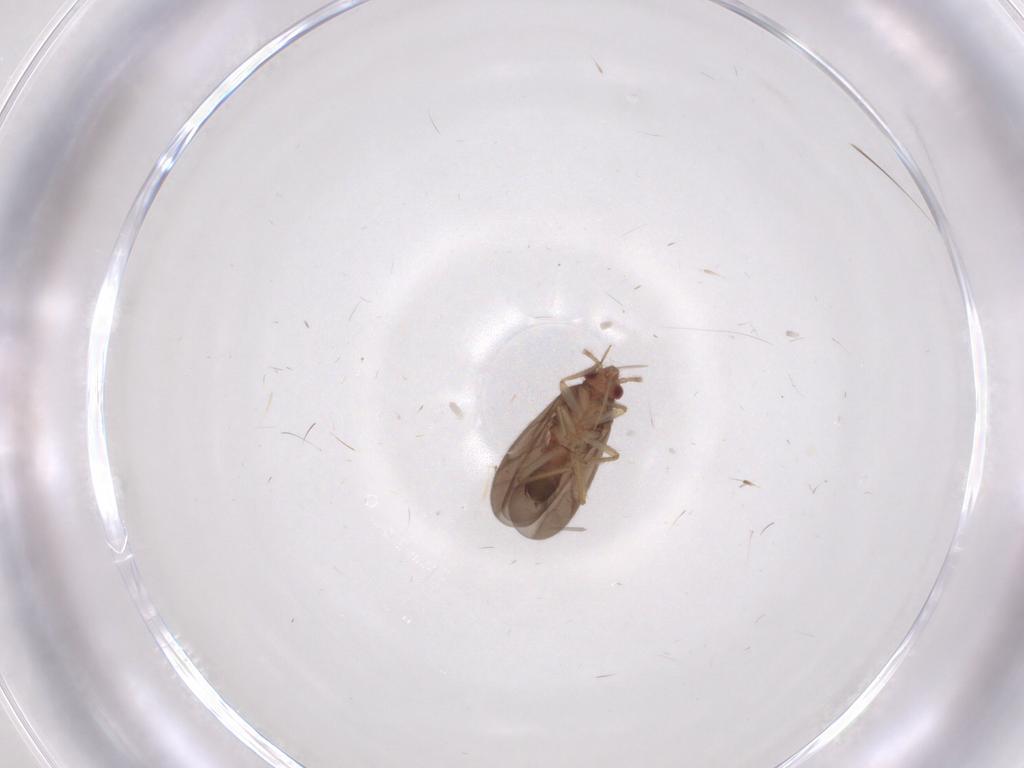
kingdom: Animalia
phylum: Arthropoda
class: Insecta
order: Hemiptera
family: Ceratocombidae
